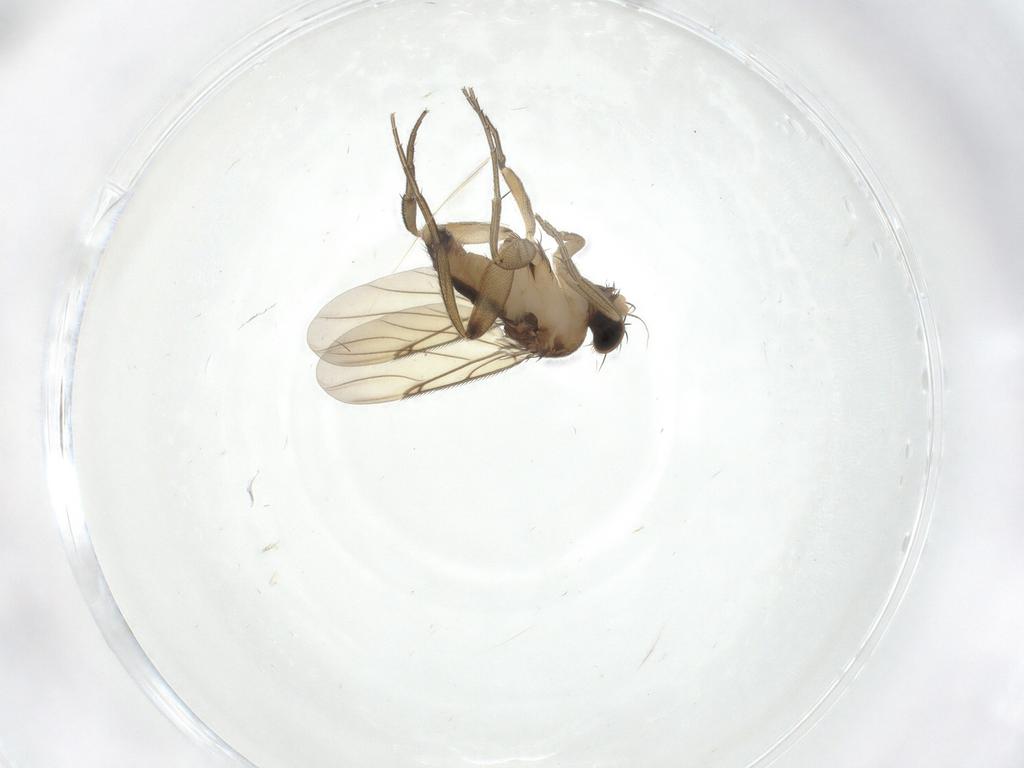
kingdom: Animalia
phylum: Arthropoda
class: Insecta
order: Diptera
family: Phoridae
